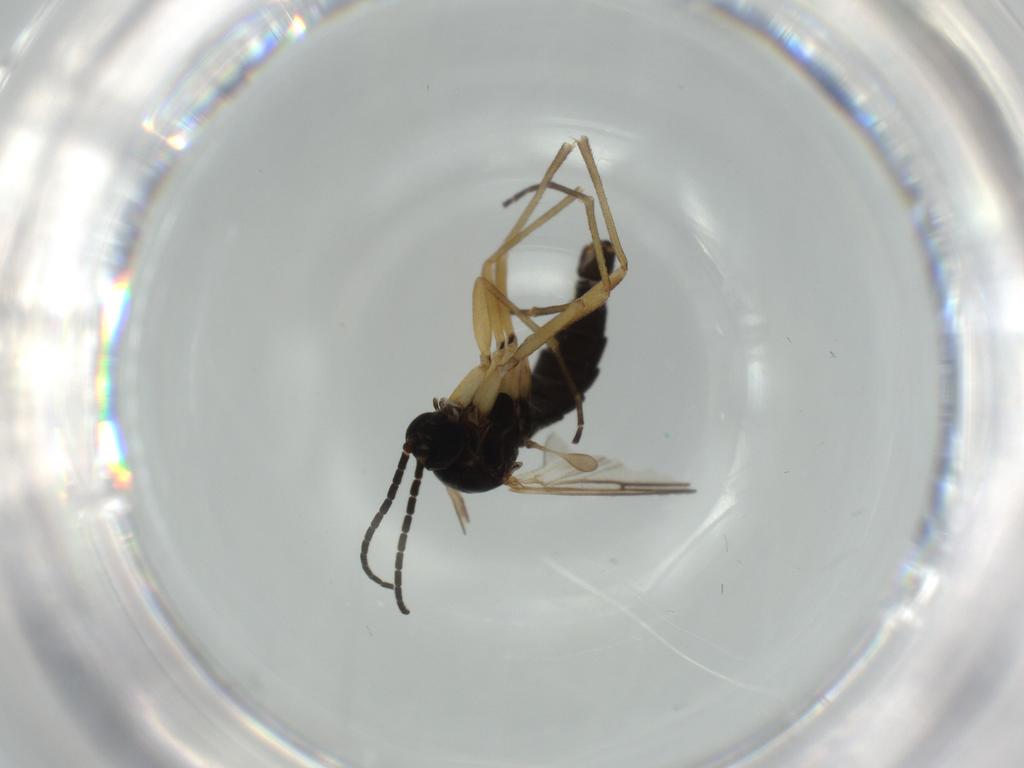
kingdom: Animalia
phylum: Arthropoda
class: Insecta
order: Diptera
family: Sciaridae
